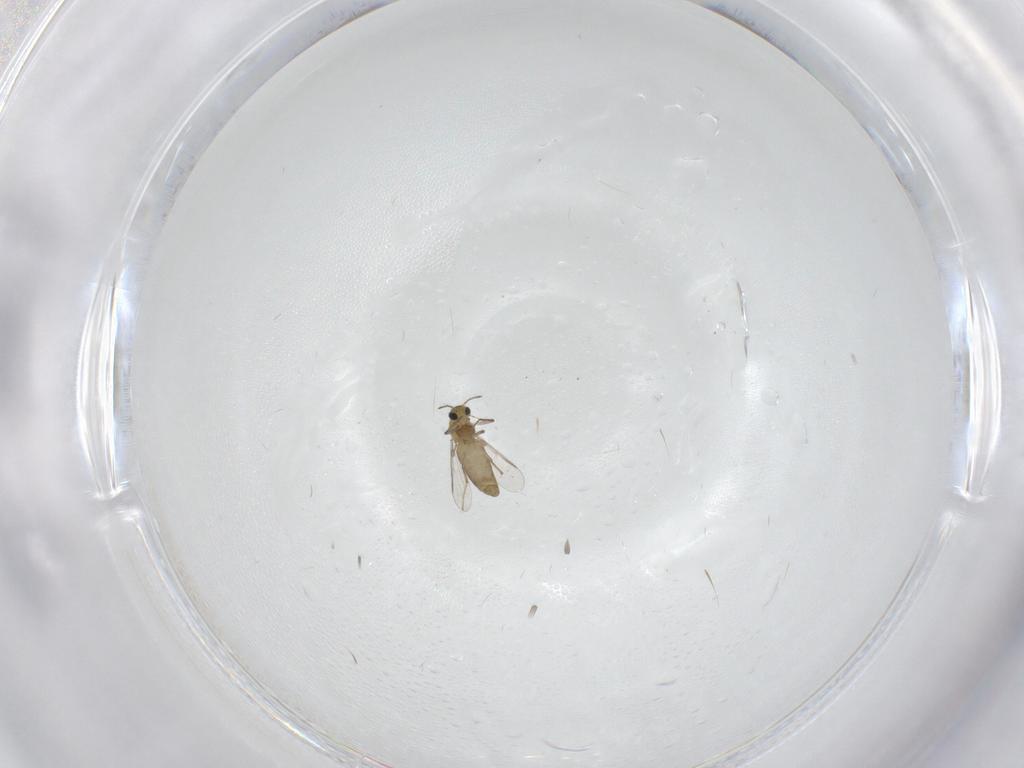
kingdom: Animalia
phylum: Arthropoda
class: Insecta
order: Diptera
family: Chironomidae
